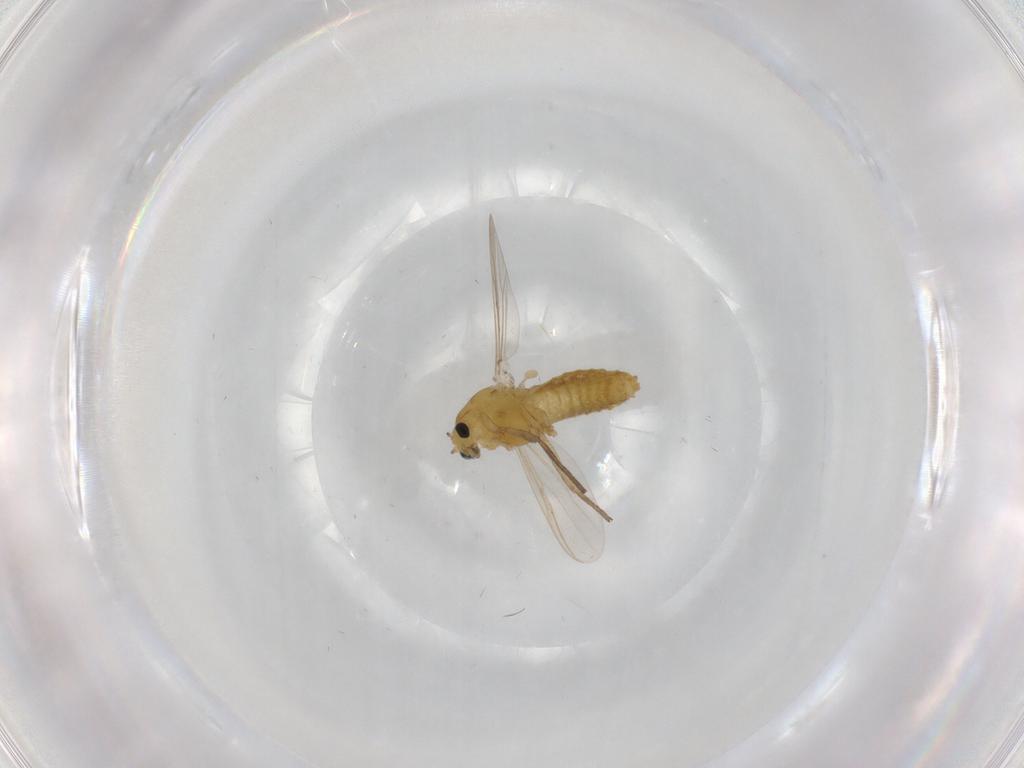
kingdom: Animalia
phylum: Arthropoda
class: Insecta
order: Diptera
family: Chironomidae
